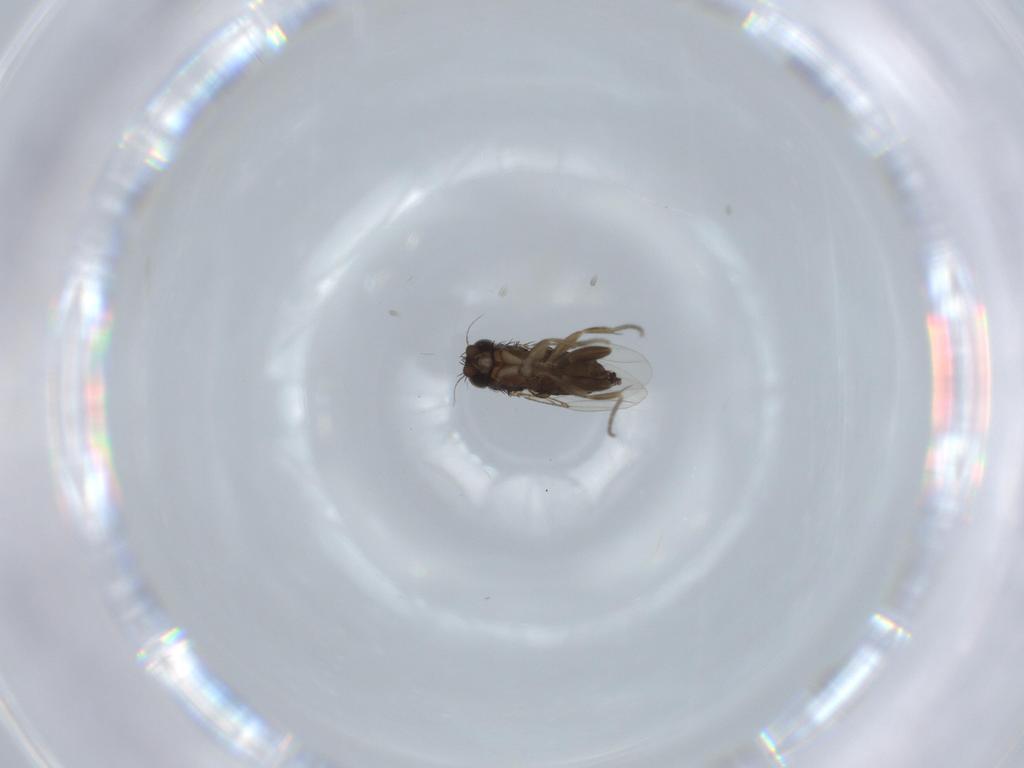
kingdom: Animalia
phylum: Arthropoda
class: Insecta
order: Diptera
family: Phoridae
